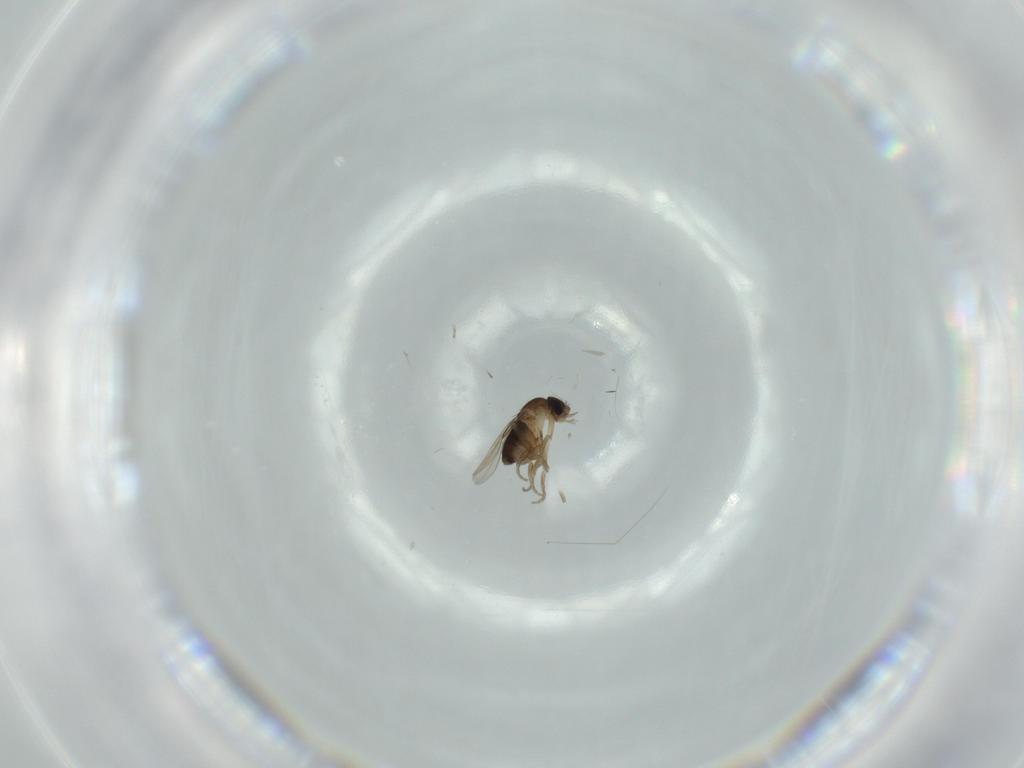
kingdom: Animalia
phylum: Arthropoda
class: Insecta
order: Diptera
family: Phoridae
